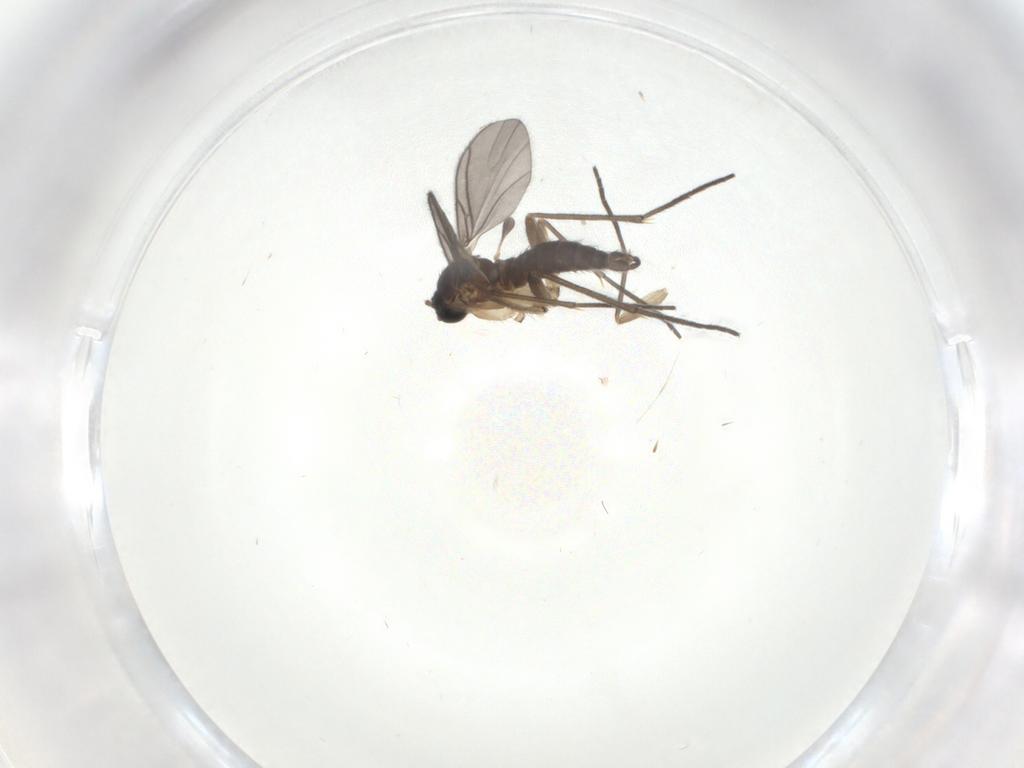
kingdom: Animalia
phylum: Arthropoda
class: Insecta
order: Diptera
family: Sciaridae
